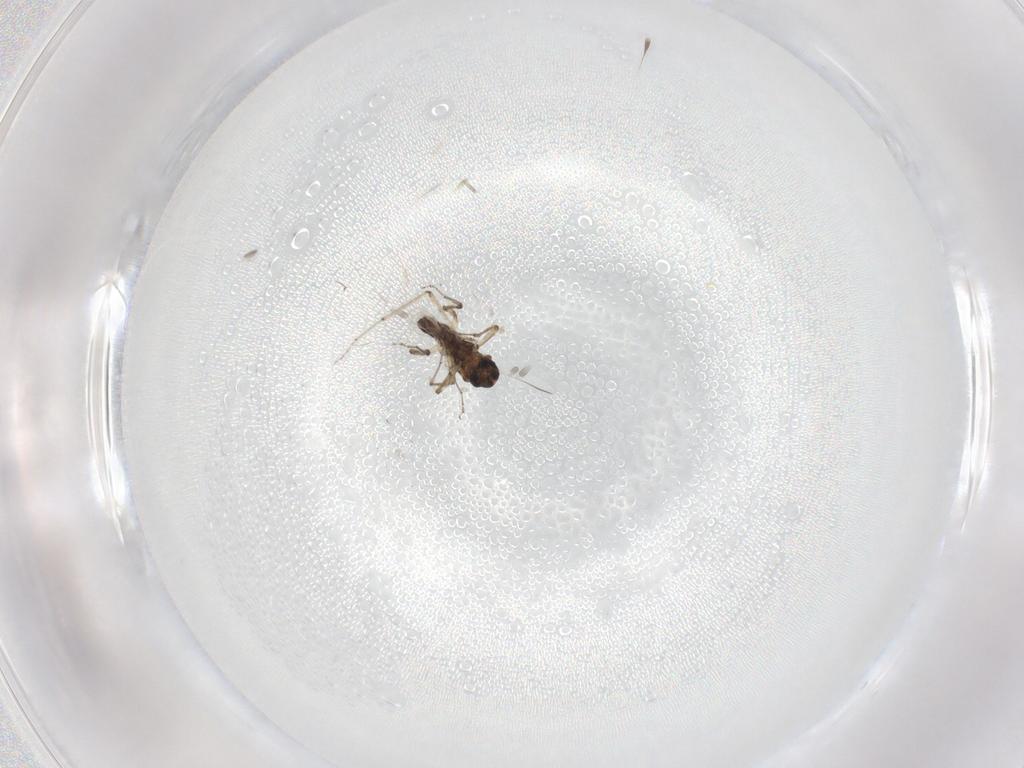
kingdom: Animalia
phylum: Arthropoda
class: Insecta
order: Diptera
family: Ceratopogonidae
